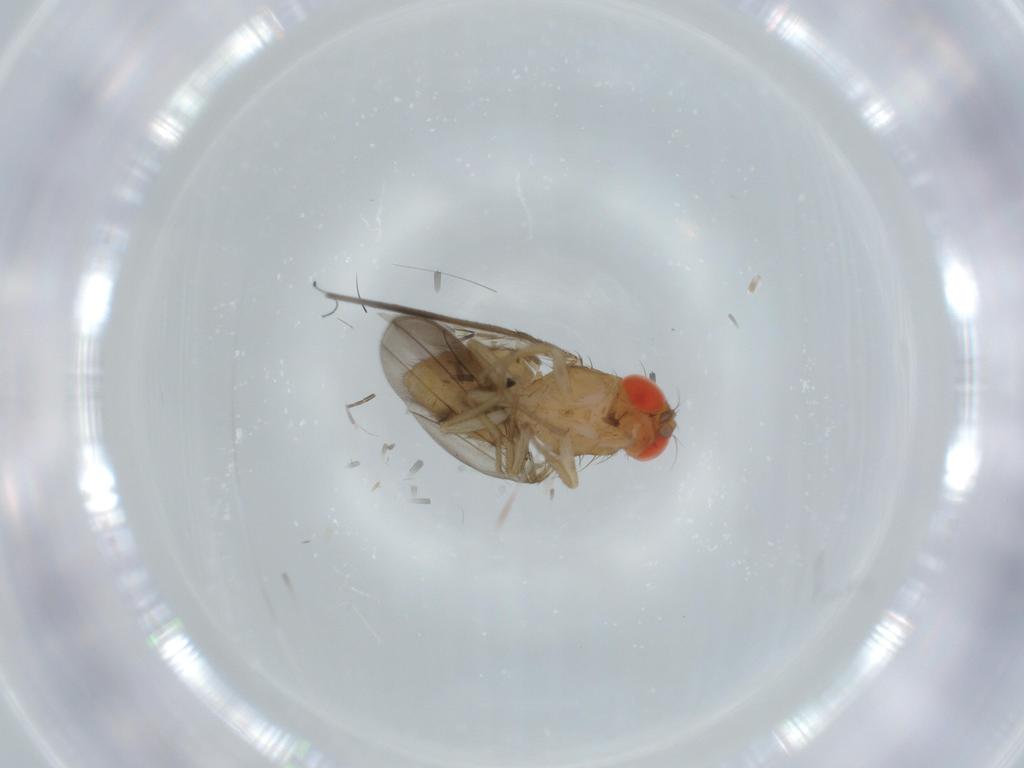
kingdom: Animalia
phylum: Arthropoda
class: Insecta
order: Diptera
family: Drosophilidae
